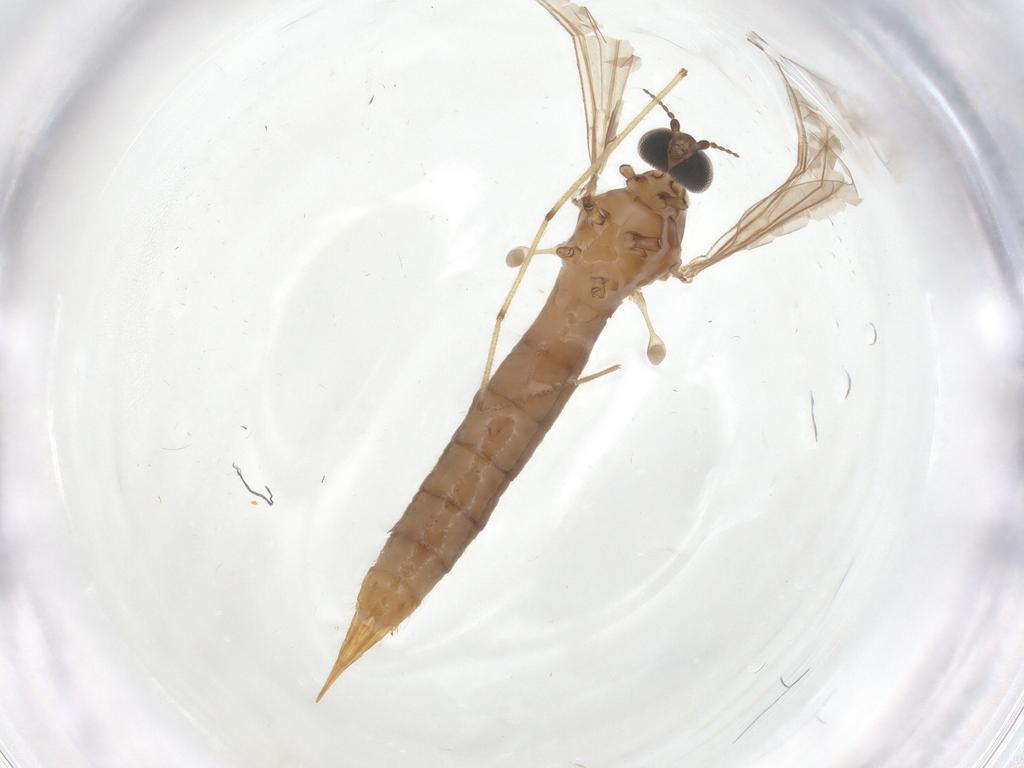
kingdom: Animalia
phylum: Arthropoda
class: Insecta
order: Diptera
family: Limoniidae
